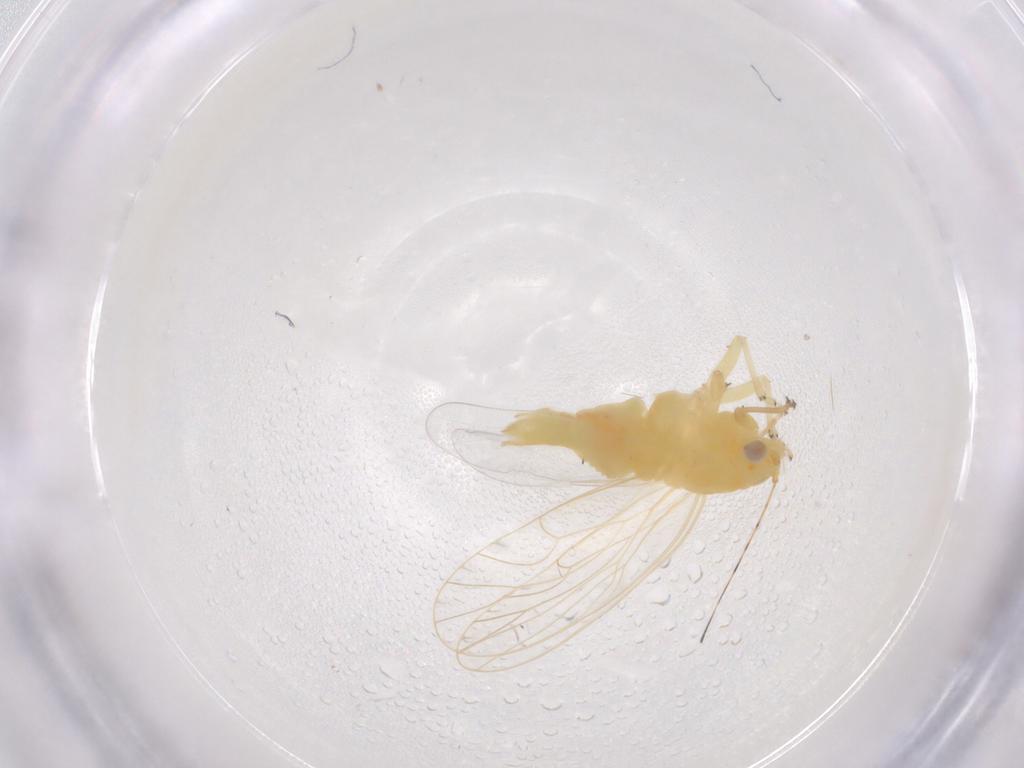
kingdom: Animalia
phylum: Arthropoda
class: Insecta
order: Hemiptera
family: Psyllidae
